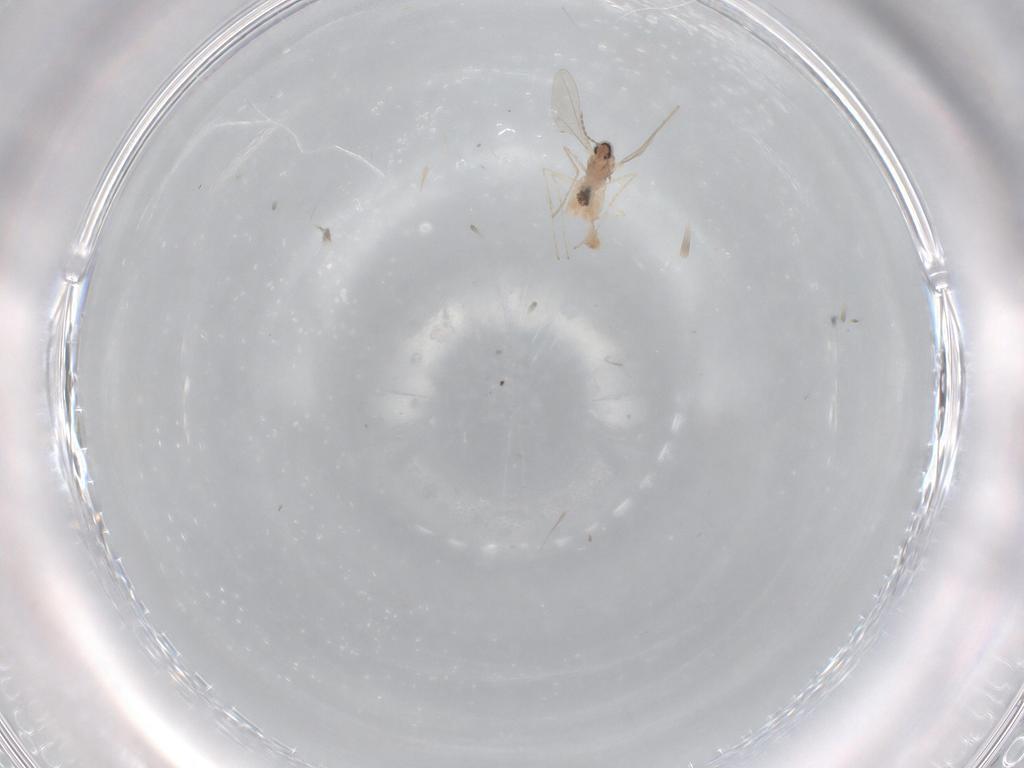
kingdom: Animalia
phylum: Arthropoda
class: Insecta
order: Diptera
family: Cecidomyiidae
